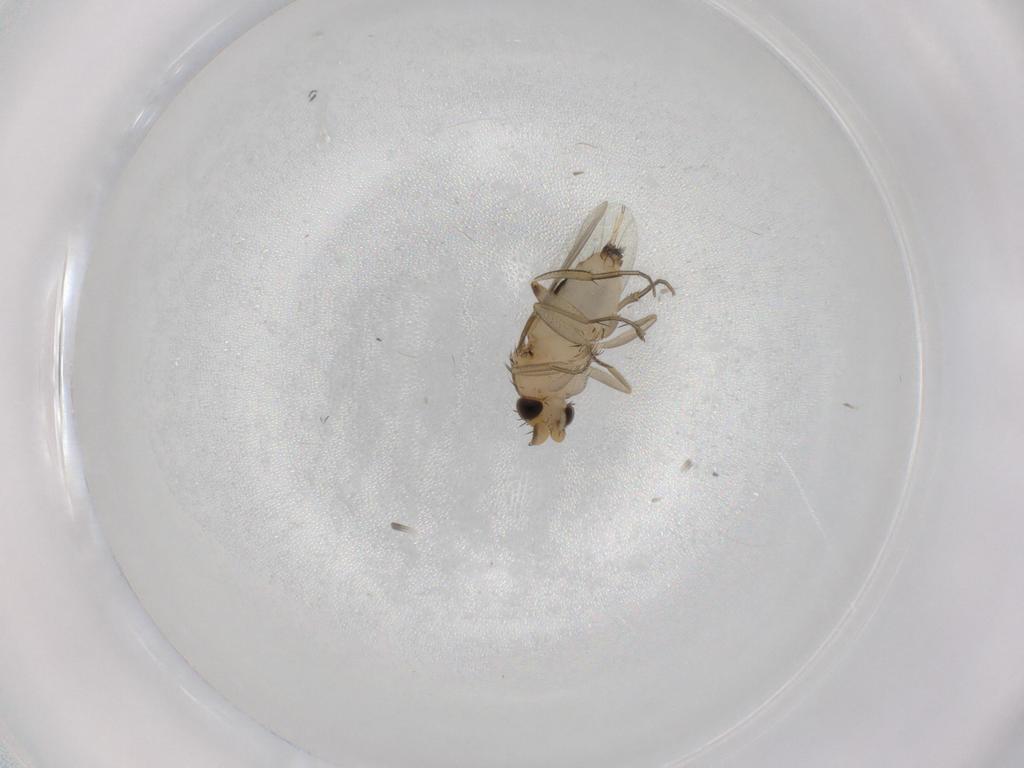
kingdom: Animalia
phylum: Arthropoda
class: Insecta
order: Diptera
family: Phoridae
